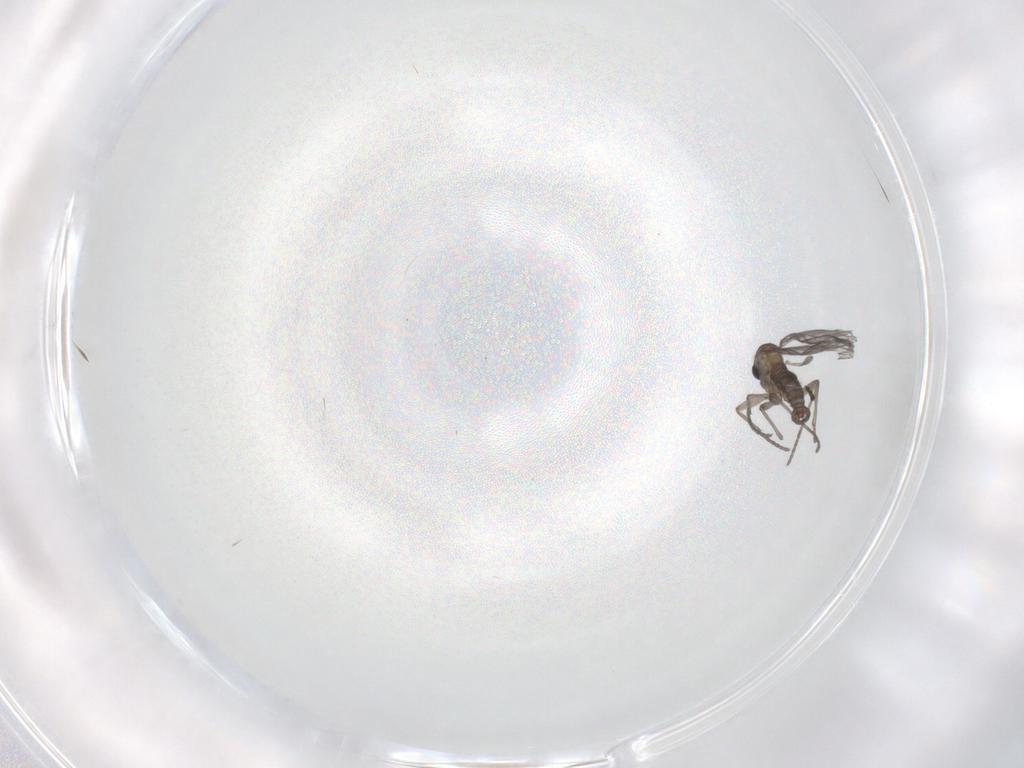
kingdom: Animalia
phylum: Arthropoda
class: Insecta
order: Diptera
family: Sciaridae
